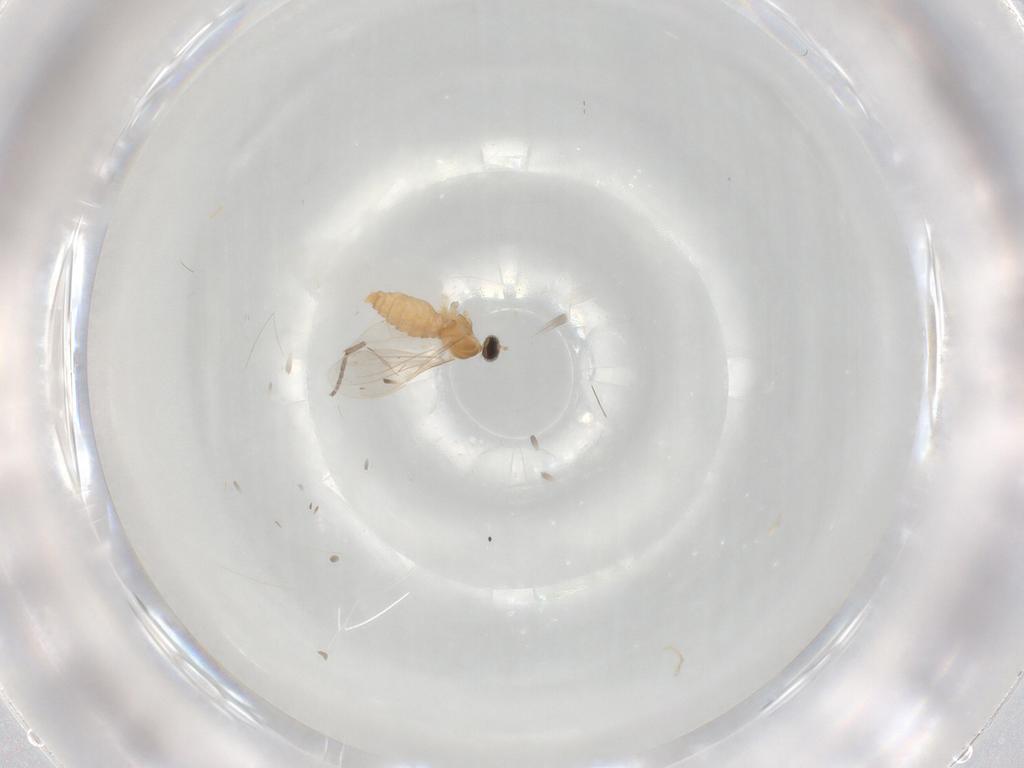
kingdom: Animalia
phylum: Arthropoda
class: Insecta
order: Diptera
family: Cecidomyiidae
